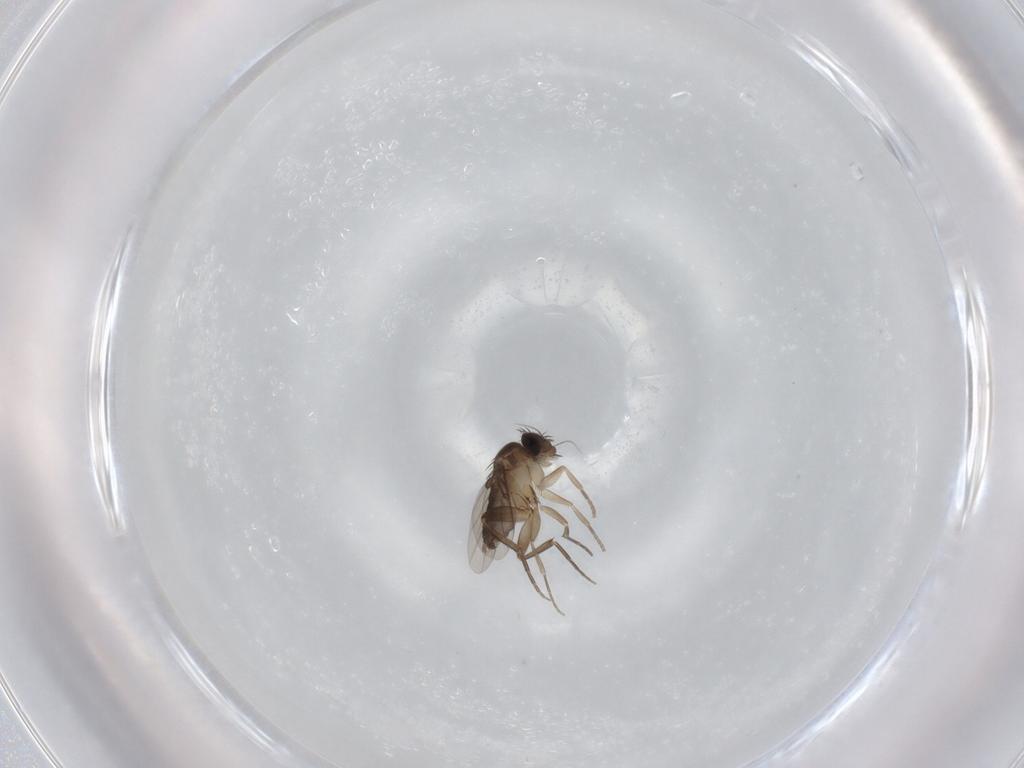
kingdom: Animalia
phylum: Arthropoda
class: Insecta
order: Diptera
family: Phoridae
